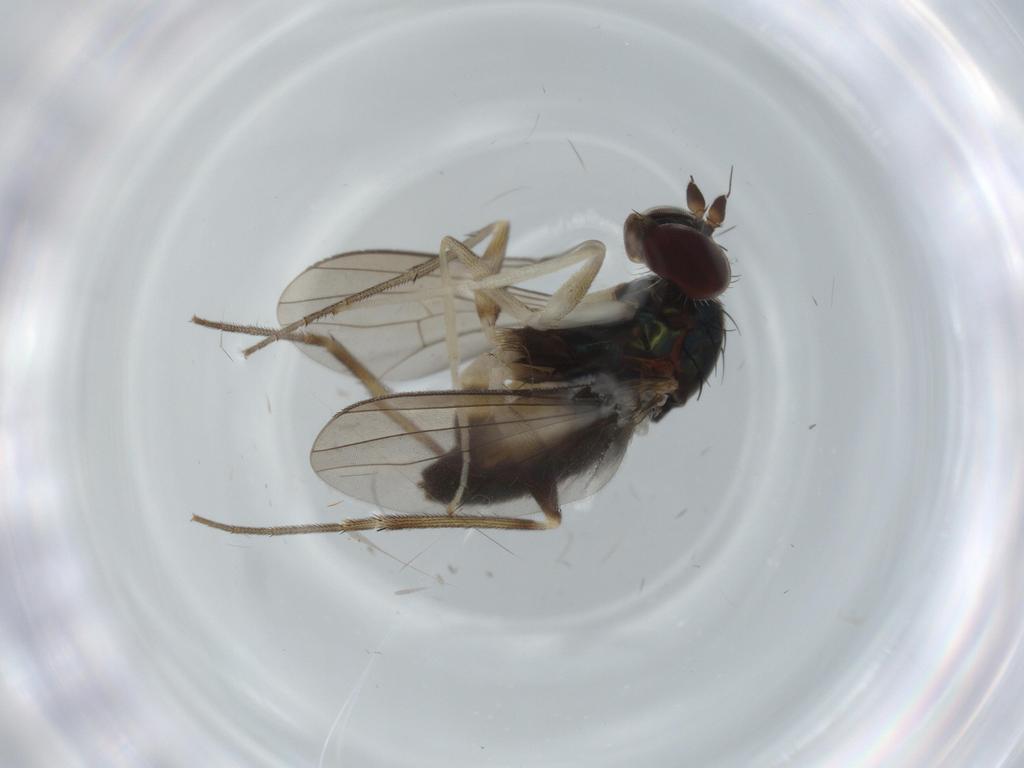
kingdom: Animalia
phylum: Arthropoda
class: Insecta
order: Diptera
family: Dolichopodidae
